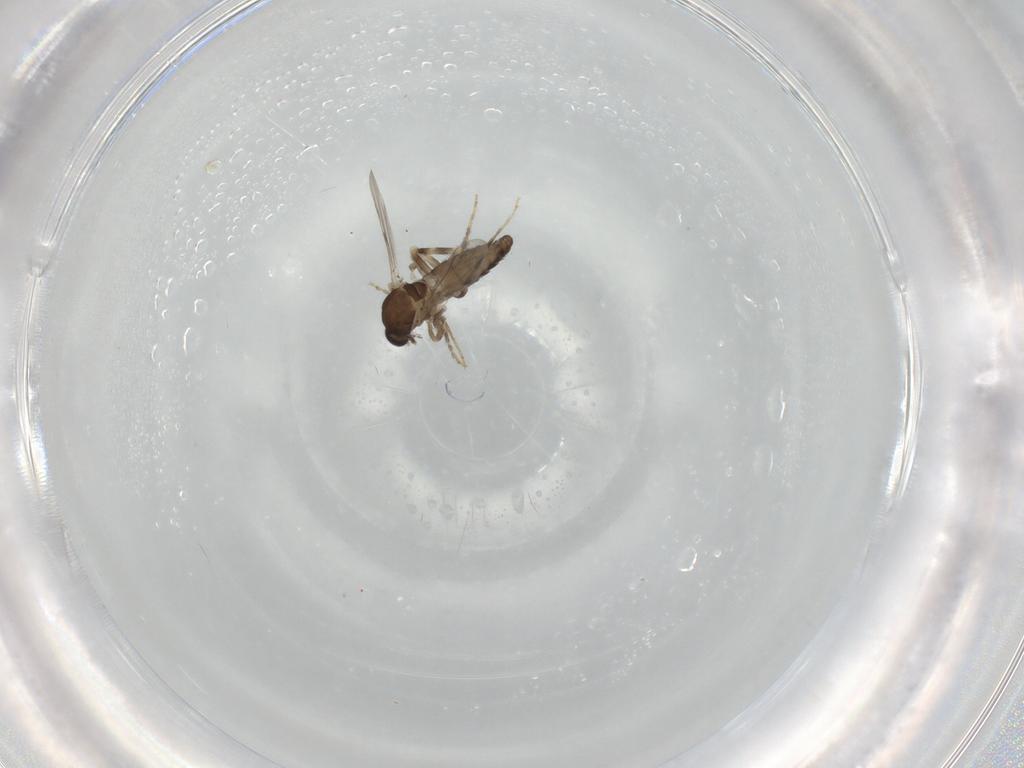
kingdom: Animalia
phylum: Arthropoda
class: Insecta
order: Diptera
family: Ceratopogonidae
